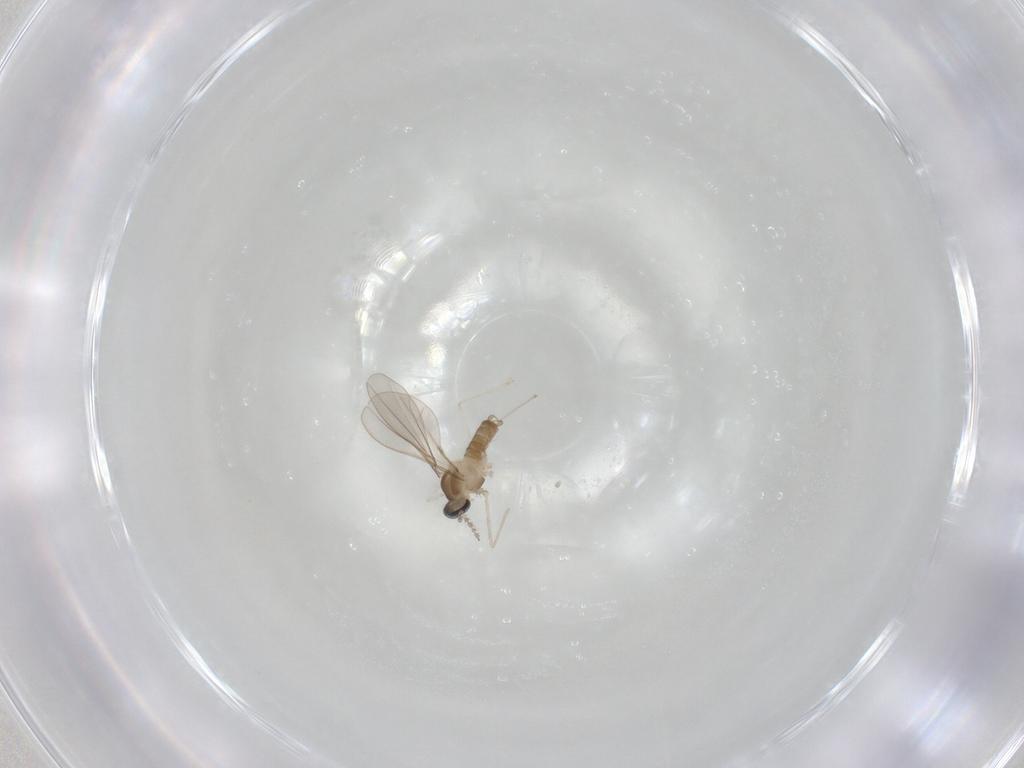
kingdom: Animalia
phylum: Arthropoda
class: Insecta
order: Diptera
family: Cecidomyiidae
